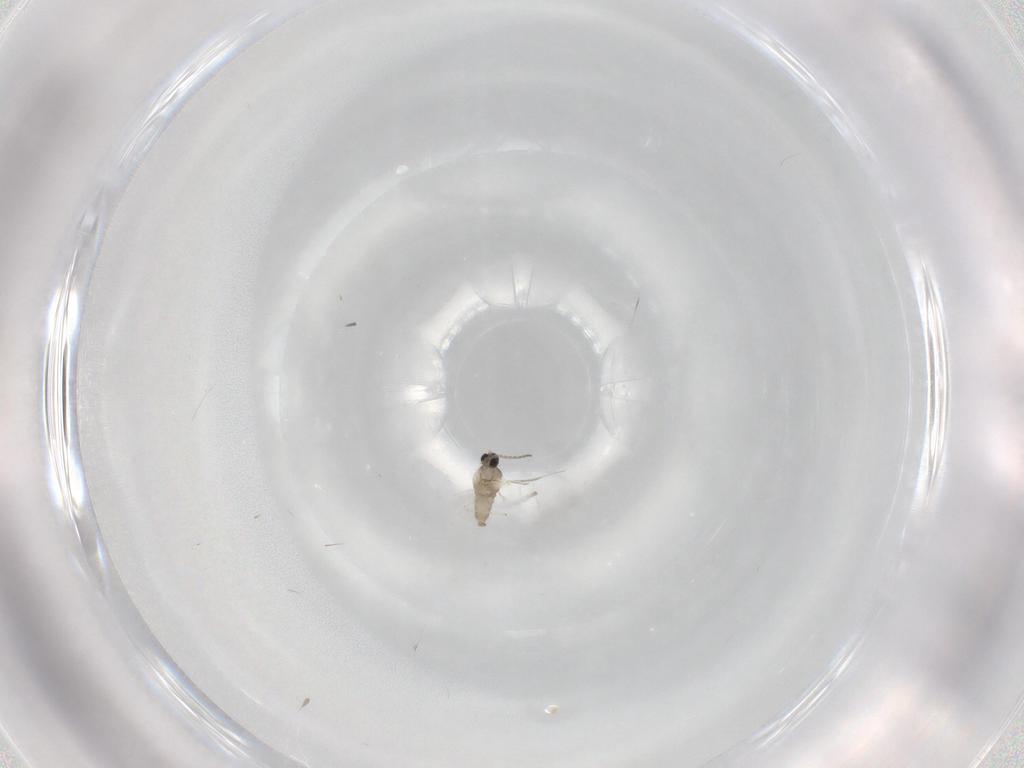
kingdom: Animalia
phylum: Arthropoda
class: Insecta
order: Diptera
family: Cecidomyiidae
